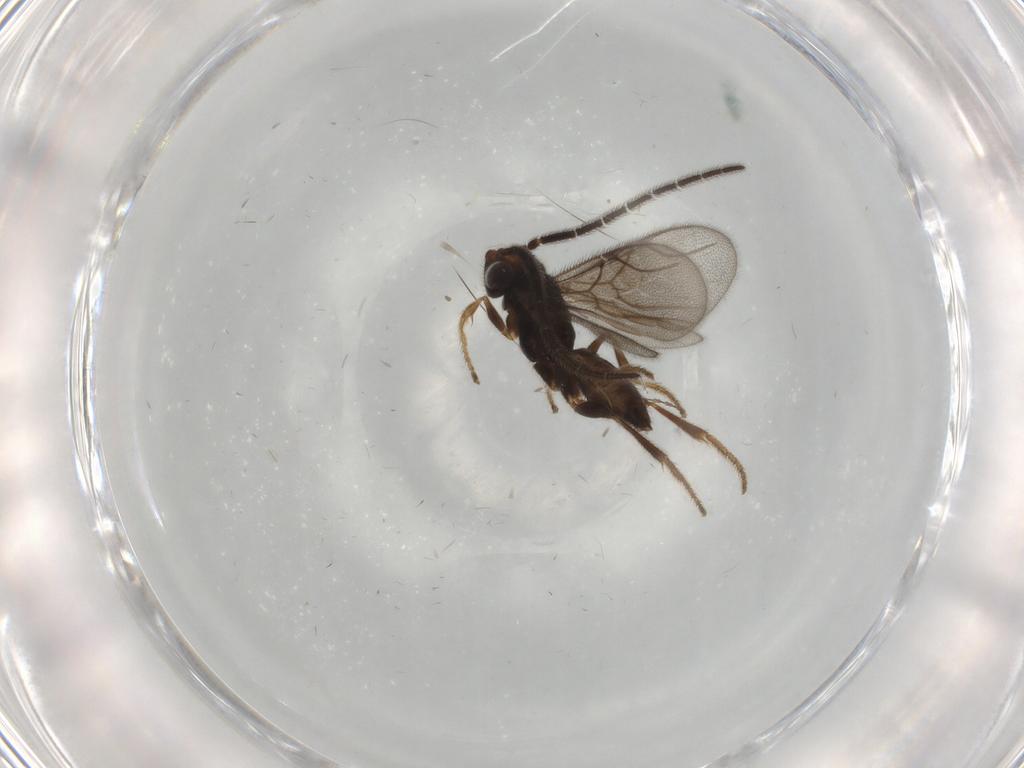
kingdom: Animalia
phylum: Arthropoda
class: Insecta
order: Hymenoptera
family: Dryinidae
